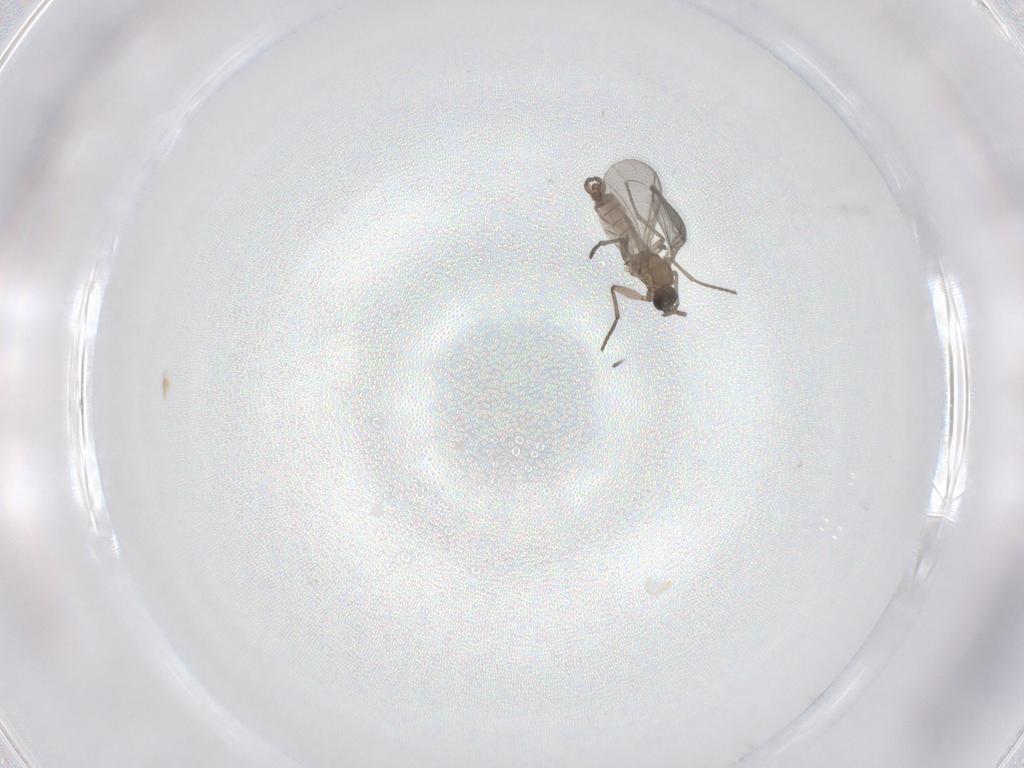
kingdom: Animalia
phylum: Arthropoda
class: Insecta
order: Diptera
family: Sciaridae
